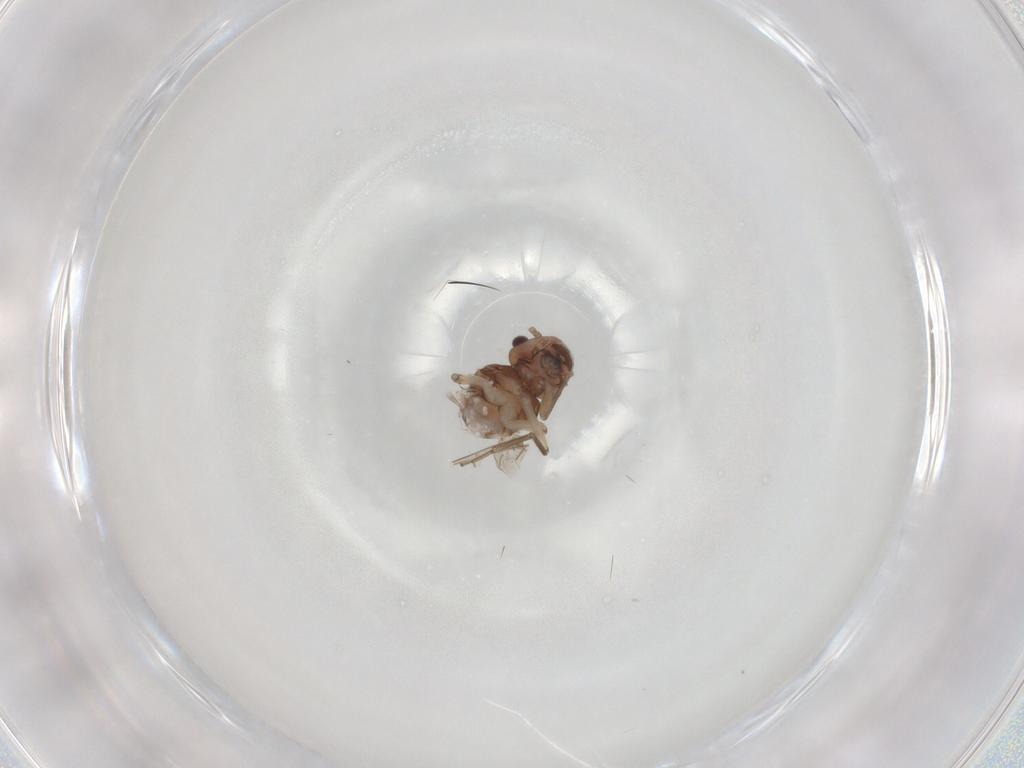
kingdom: Animalia
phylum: Arthropoda
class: Insecta
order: Psocodea
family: Peripsocidae
